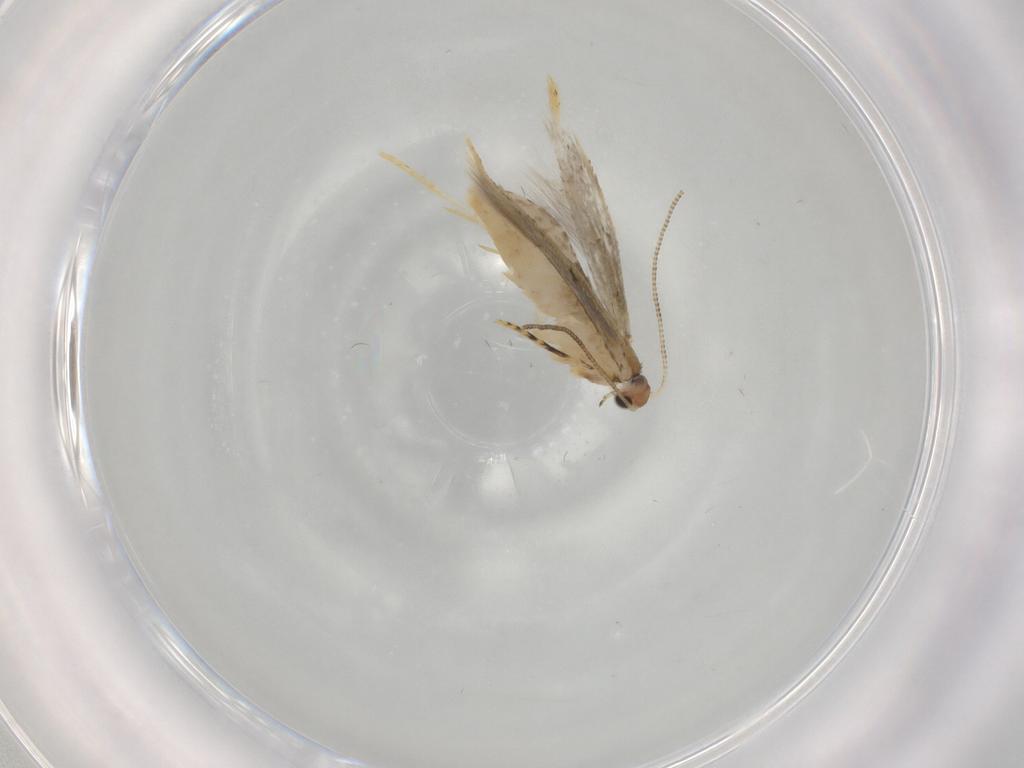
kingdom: Animalia
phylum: Arthropoda
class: Insecta
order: Lepidoptera
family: Tineidae
